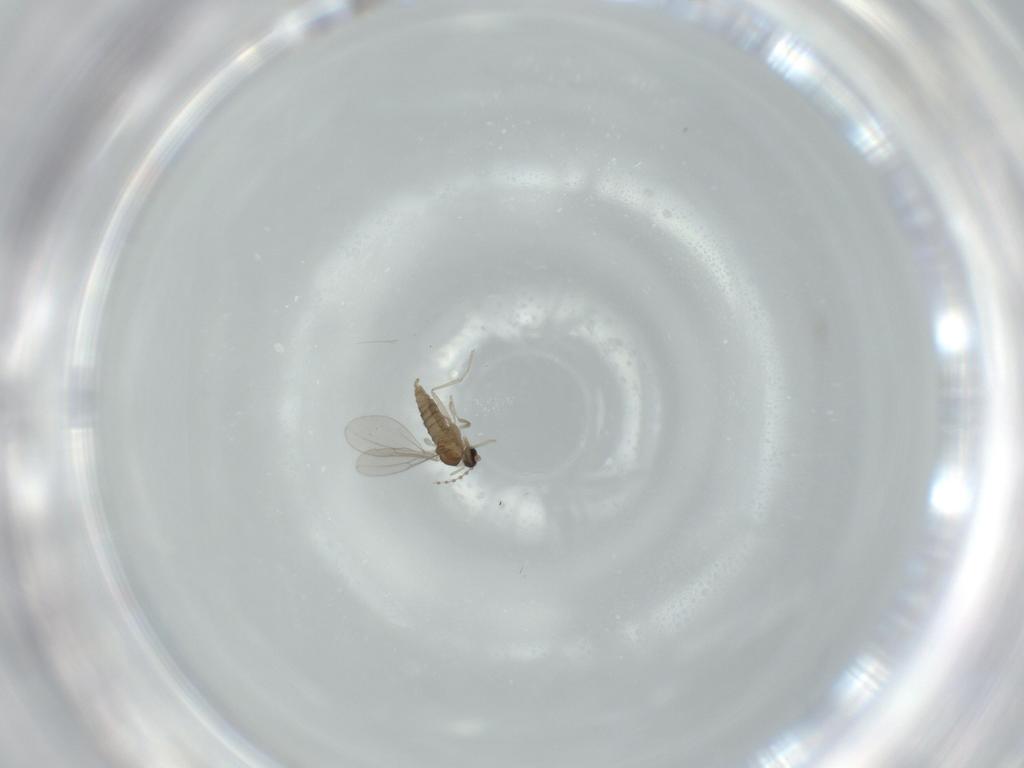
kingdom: Animalia
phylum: Arthropoda
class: Insecta
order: Diptera
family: Cecidomyiidae
